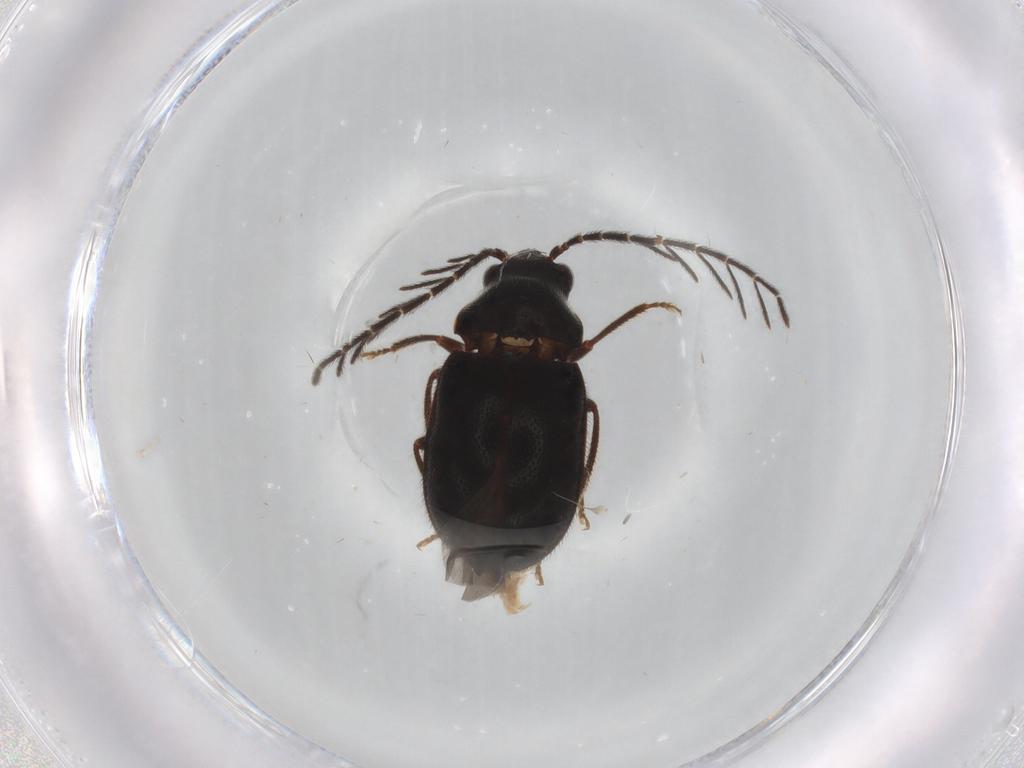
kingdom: Animalia
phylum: Arthropoda
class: Insecta
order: Coleoptera
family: Ptilodactylidae
